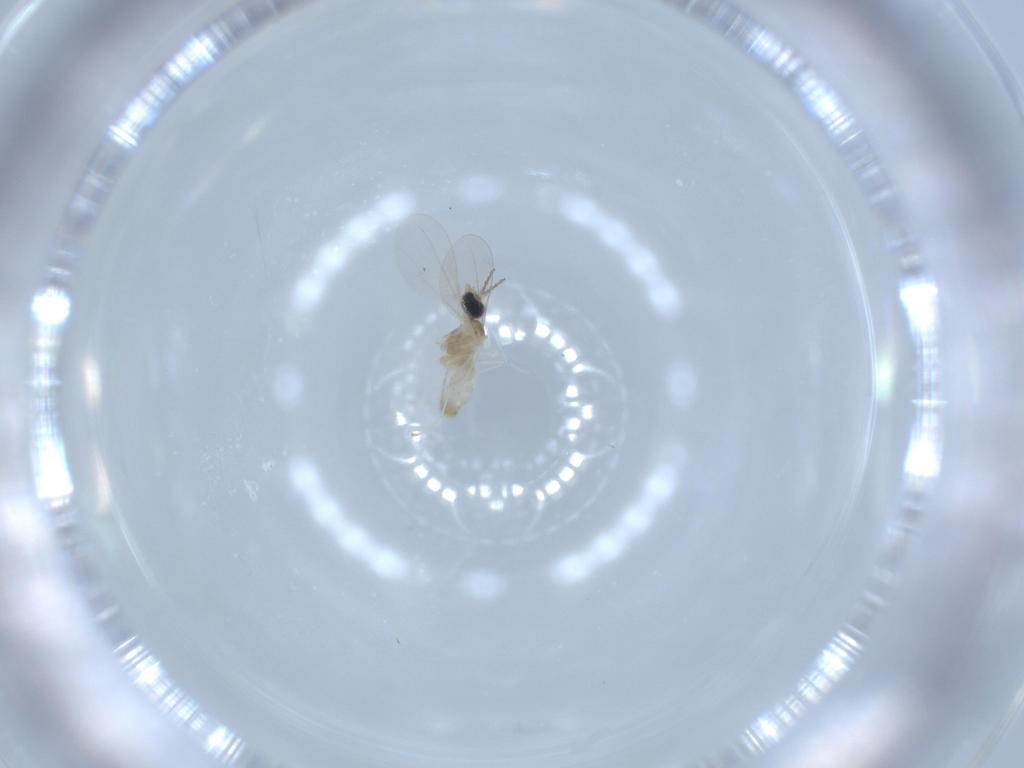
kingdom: Animalia
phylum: Arthropoda
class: Insecta
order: Diptera
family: Cecidomyiidae
